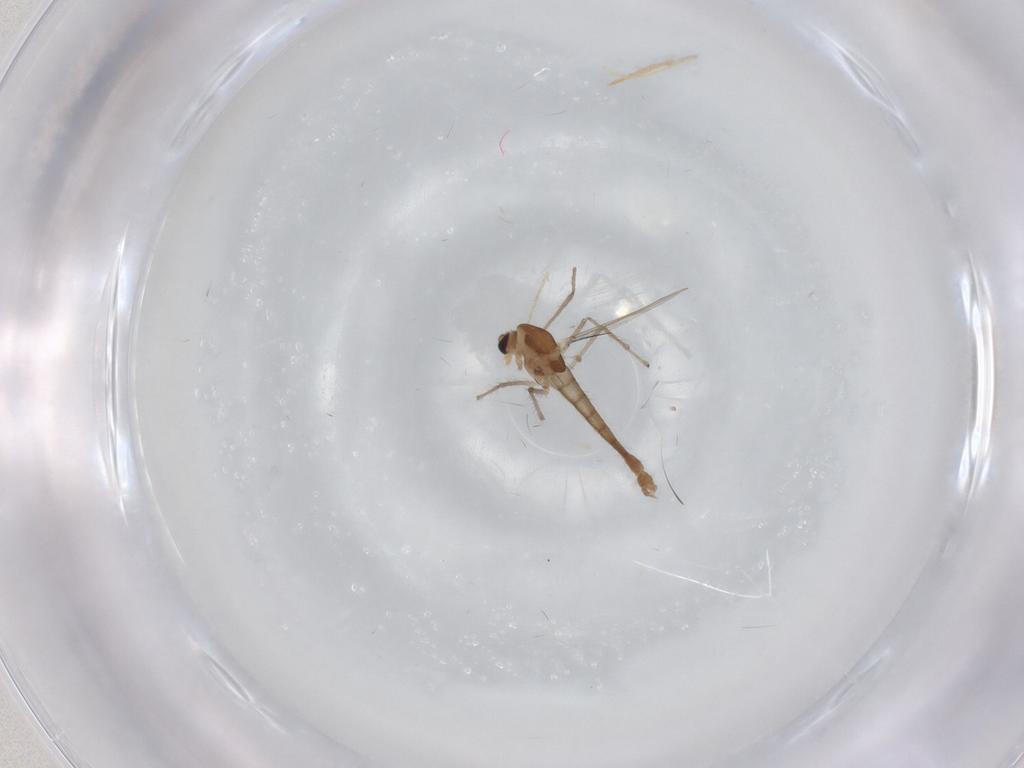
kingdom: Animalia
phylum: Arthropoda
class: Insecta
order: Diptera
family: Chironomidae
